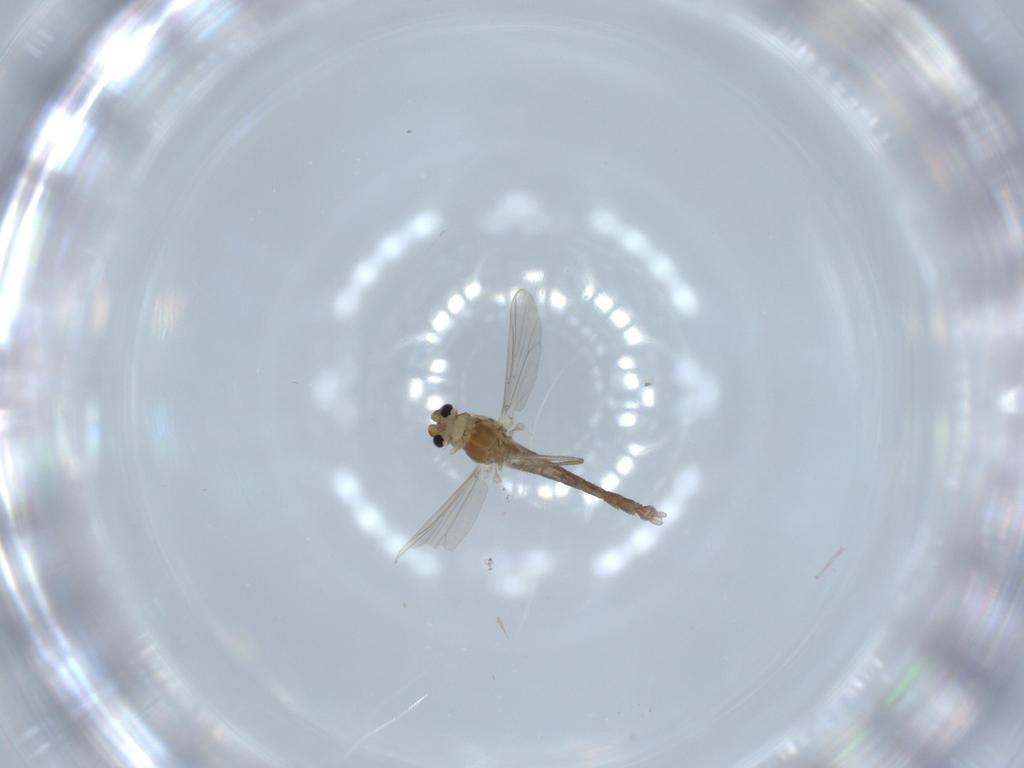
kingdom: Animalia
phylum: Arthropoda
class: Insecta
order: Diptera
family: Chironomidae
